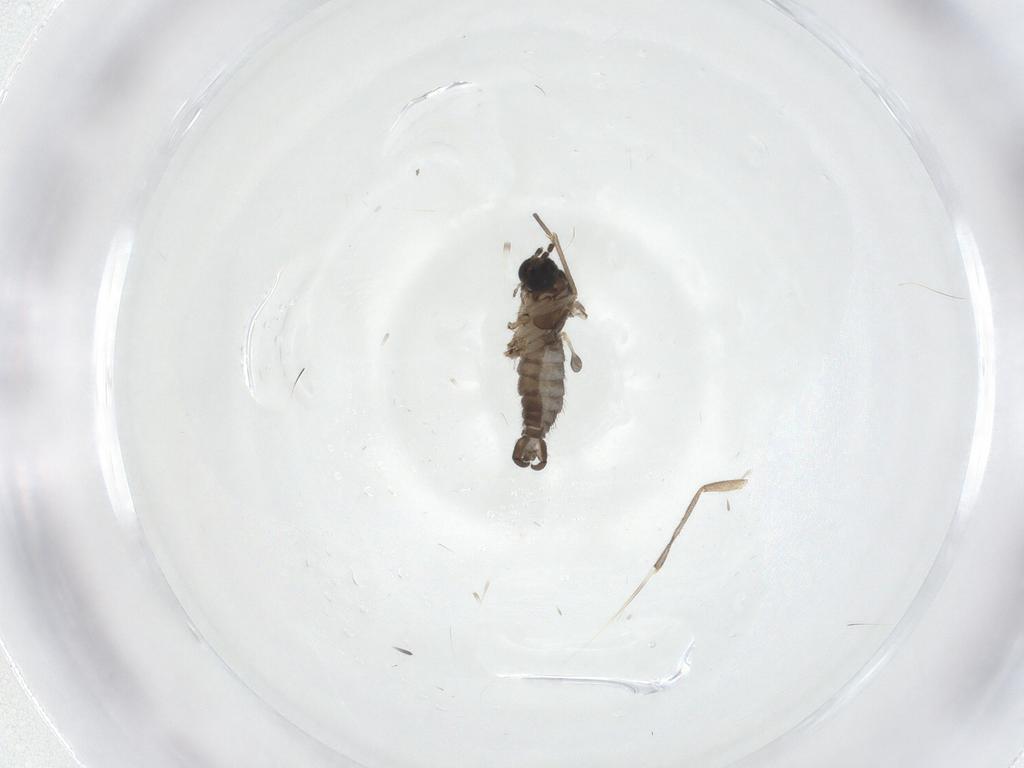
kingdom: Animalia
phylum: Arthropoda
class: Insecta
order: Diptera
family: Sciaridae
